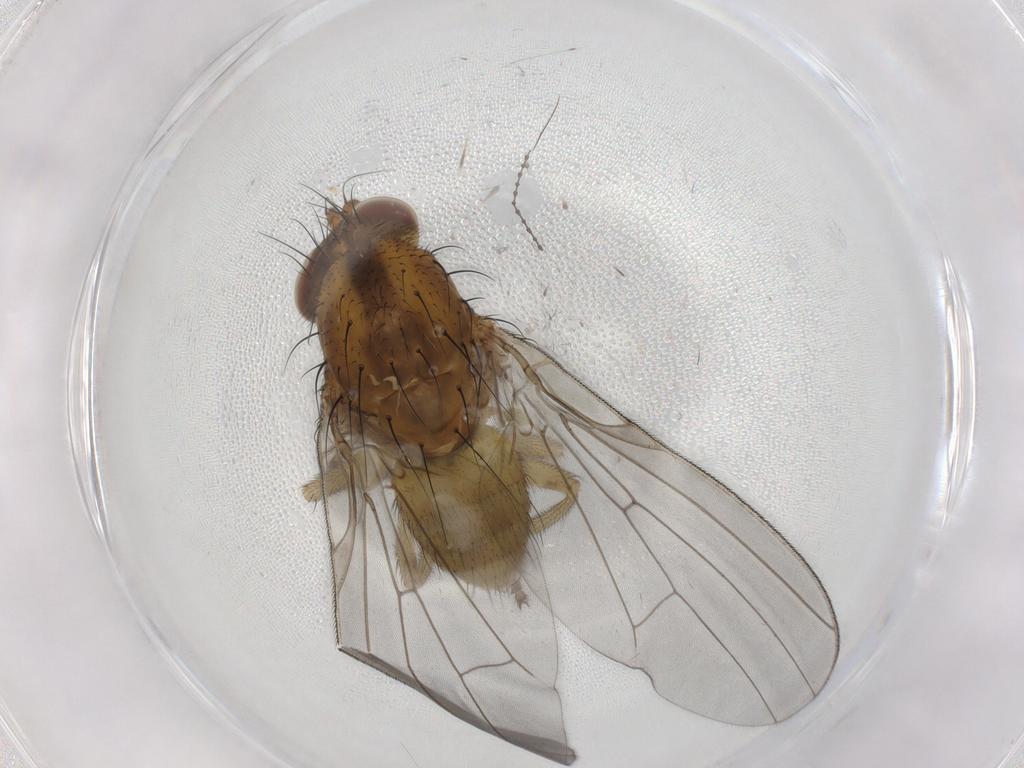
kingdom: Animalia
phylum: Arthropoda
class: Insecta
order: Diptera
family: Lauxaniidae
